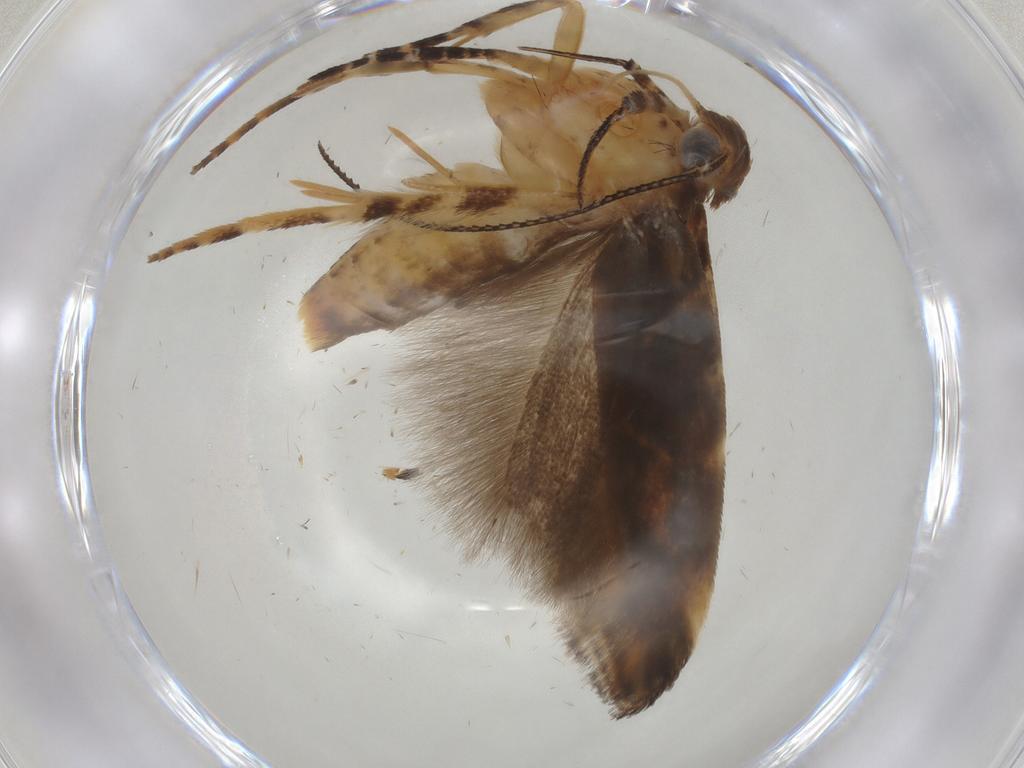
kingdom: Animalia
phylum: Arthropoda
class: Insecta
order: Lepidoptera
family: Gelechiidae
